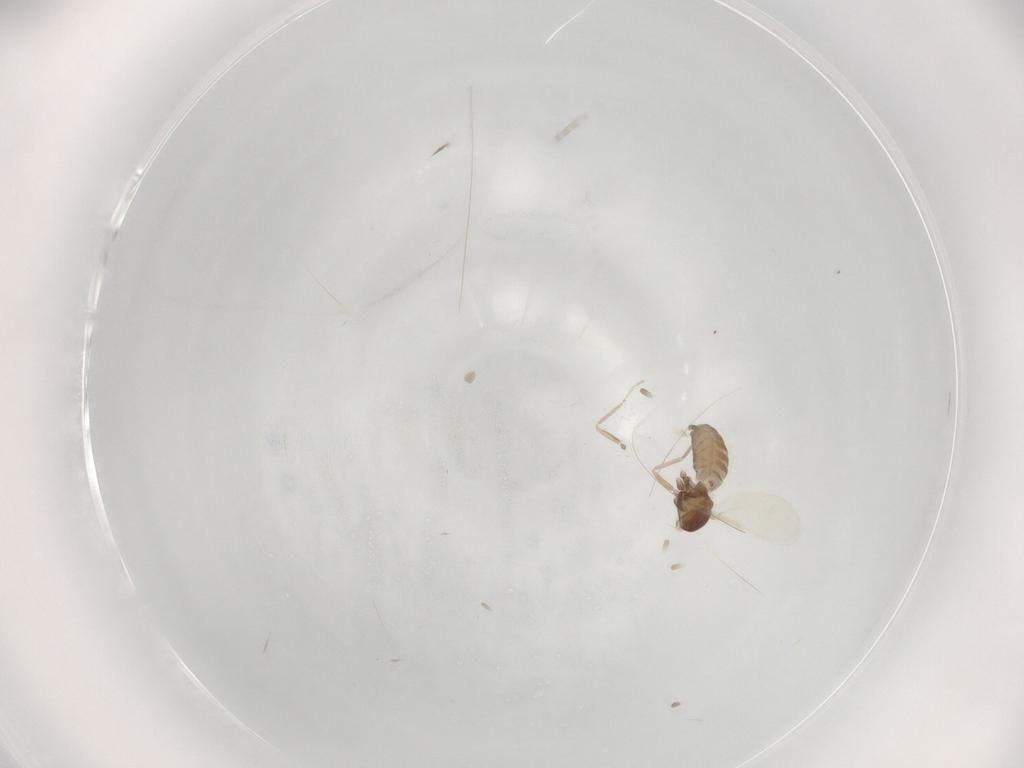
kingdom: Animalia
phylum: Arthropoda
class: Insecta
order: Diptera
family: Cecidomyiidae
